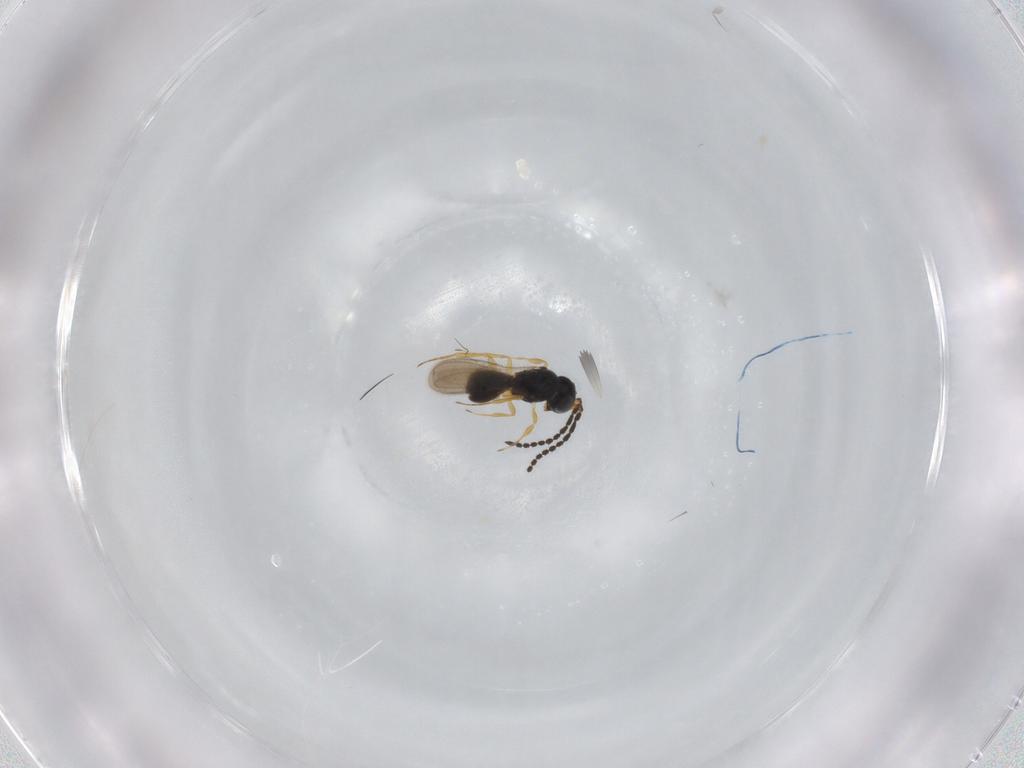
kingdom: Animalia
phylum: Arthropoda
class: Insecta
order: Hymenoptera
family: Scelionidae
